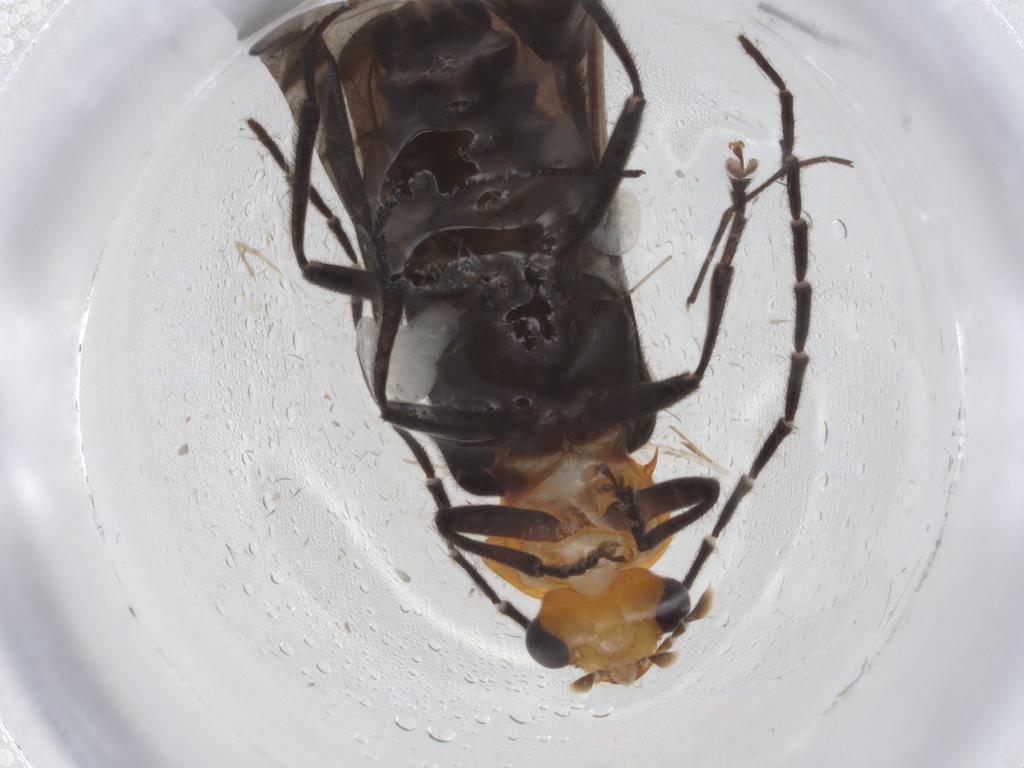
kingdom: Animalia
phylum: Arthropoda
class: Insecta
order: Coleoptera
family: Cantharidae
